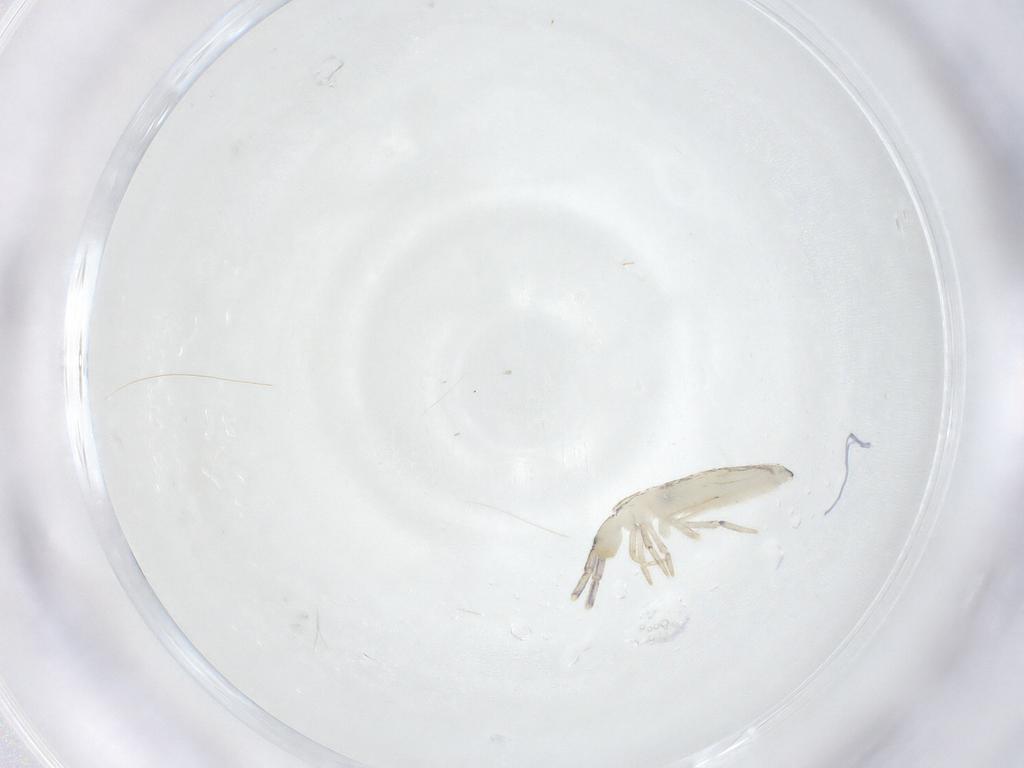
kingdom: Animalia
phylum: Arthropoda
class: Collembola
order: Entomobryomorpha
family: Entomobryidae
